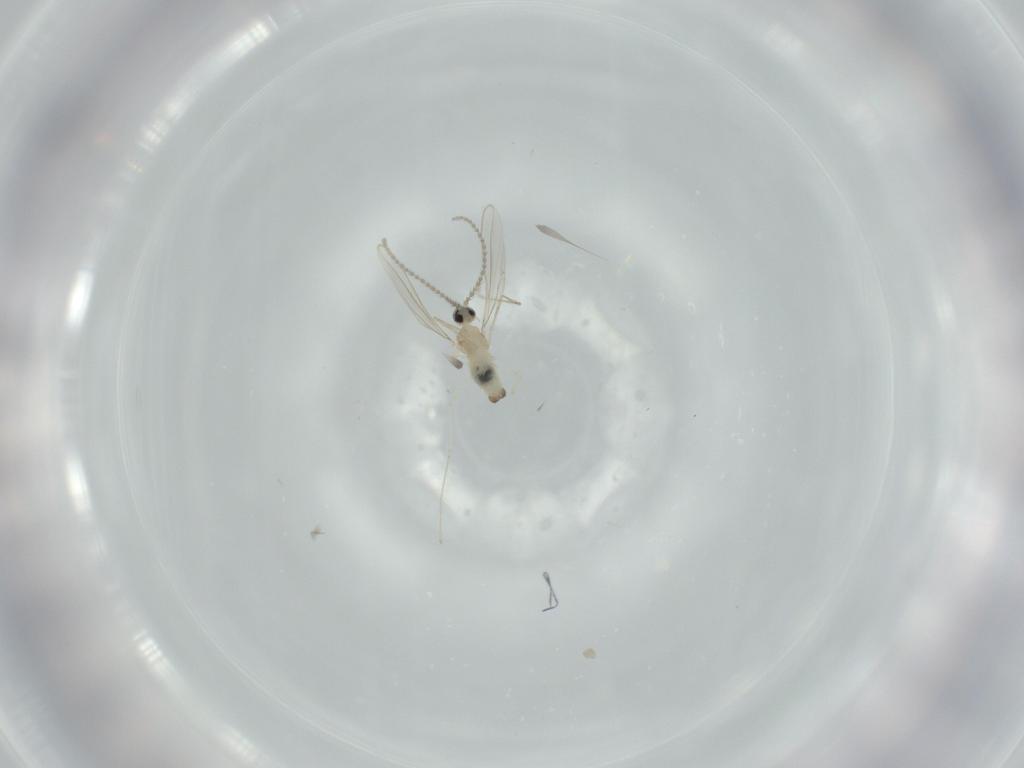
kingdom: Animalia
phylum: Arthropoda
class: Insecta
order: Diptera
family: Cecidomyiidae
